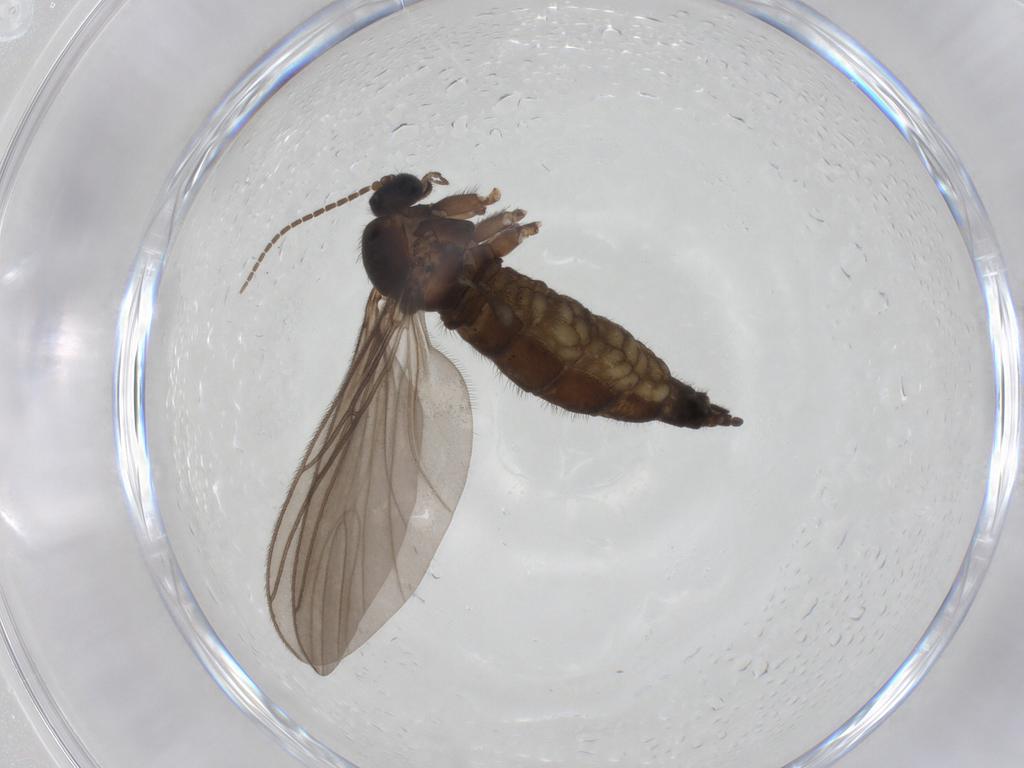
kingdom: Animalia
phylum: Arthropoda
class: Insecta
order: Diptera
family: Sciaridae
